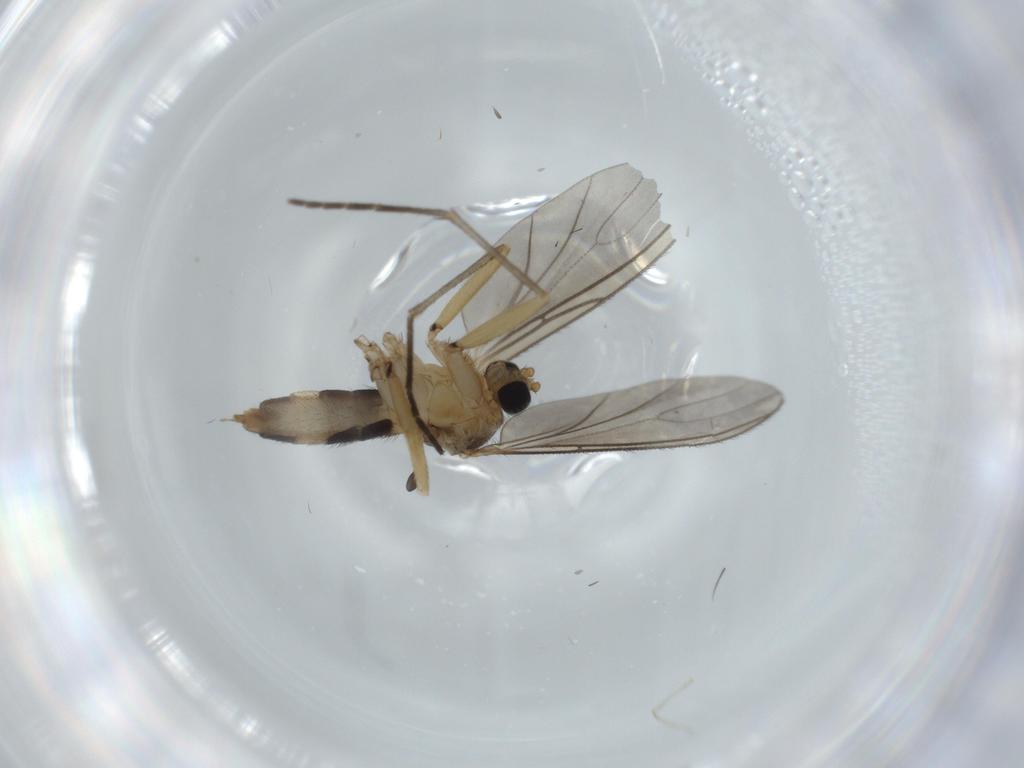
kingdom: Animalia
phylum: Arthropoda
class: Insecta
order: Diptera
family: Sciaridae
